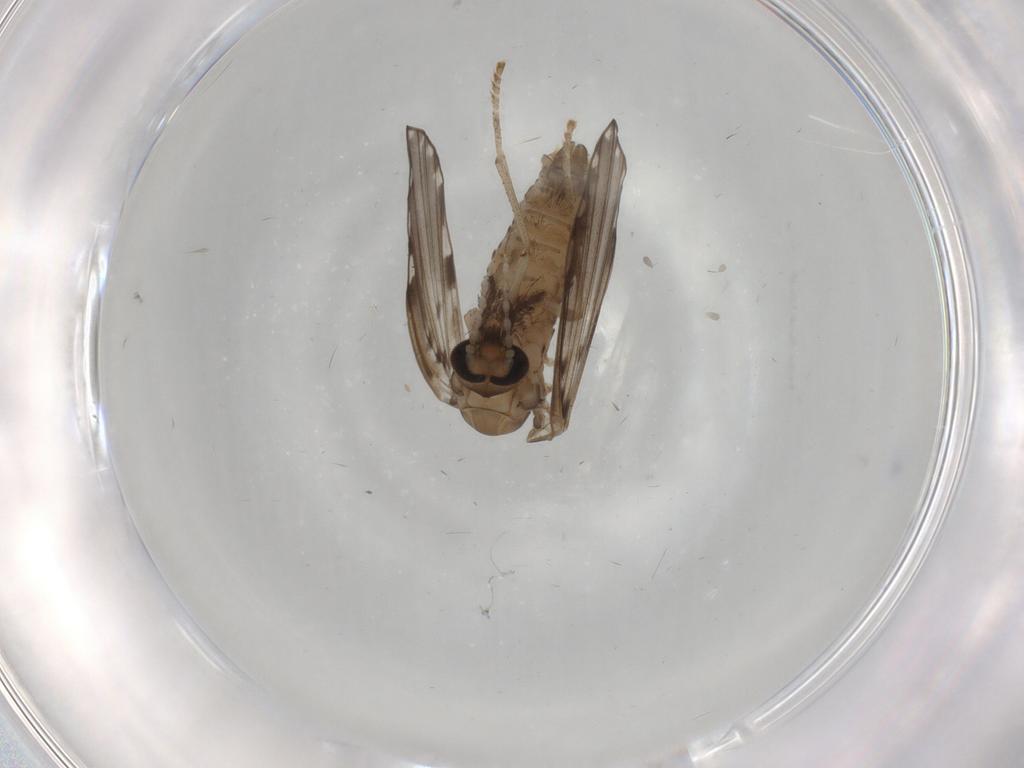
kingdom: Animalia
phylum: Arthropoda
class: Insecta
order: Diptera
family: Psychodidae
